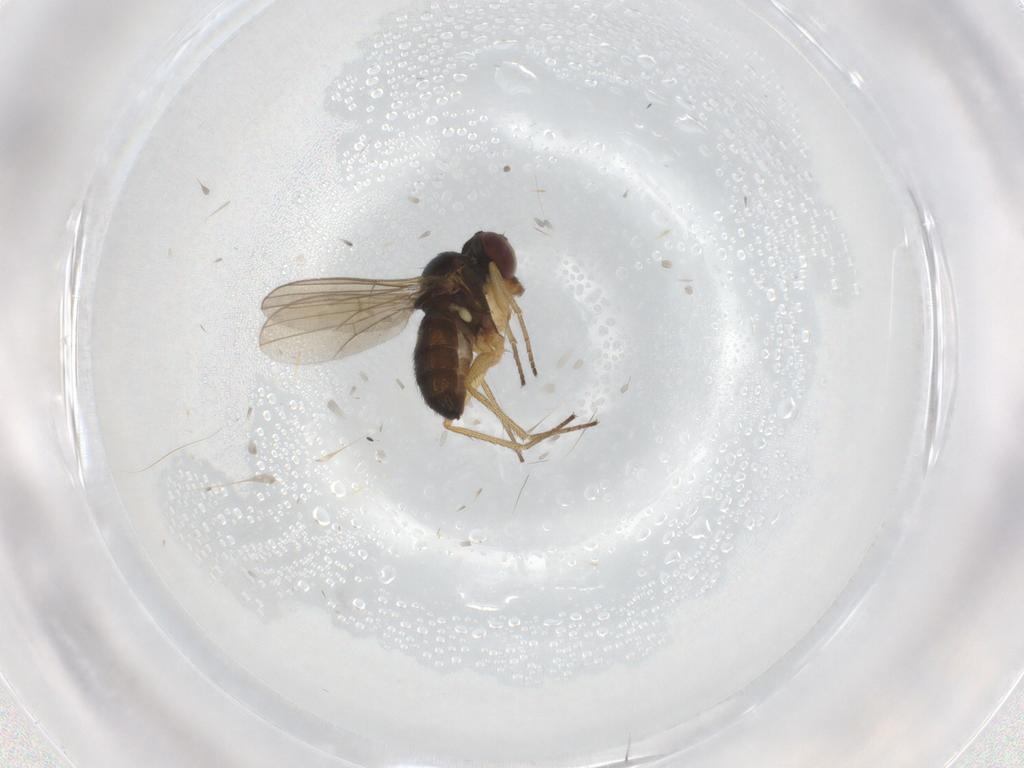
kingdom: Animalia
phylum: Arthropoda
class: Insecta
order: Diptera
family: Dolichopodidae
